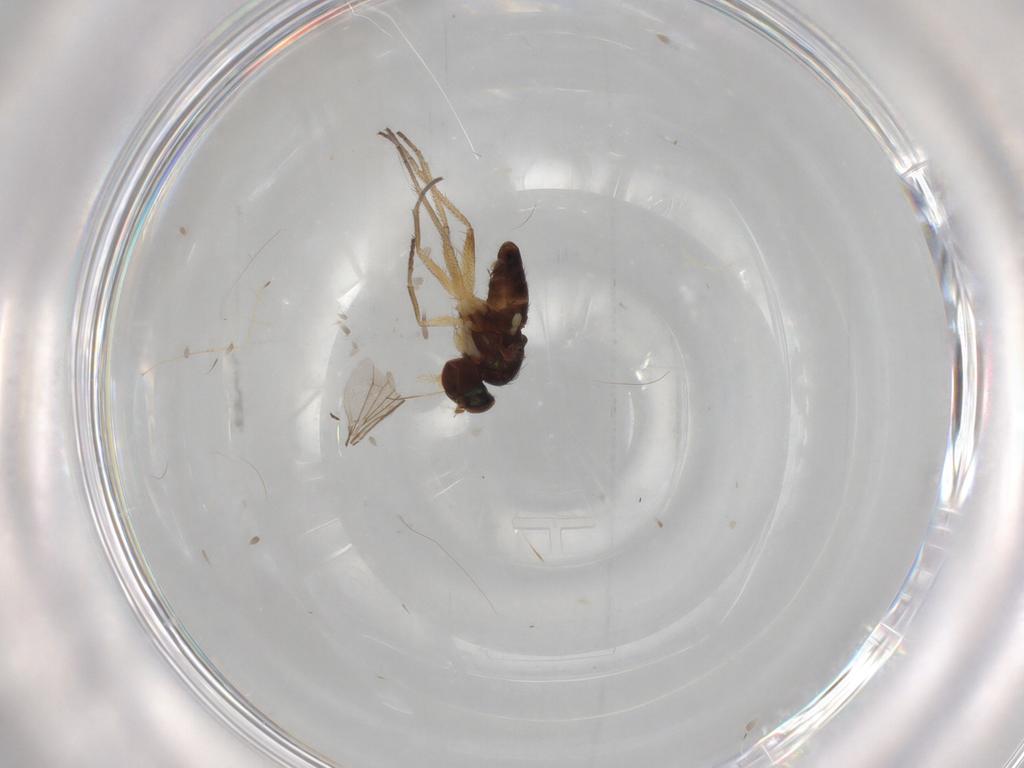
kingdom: Animalia
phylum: Arthropoda
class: Insecta
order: Diptera
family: Dolichopodidae
